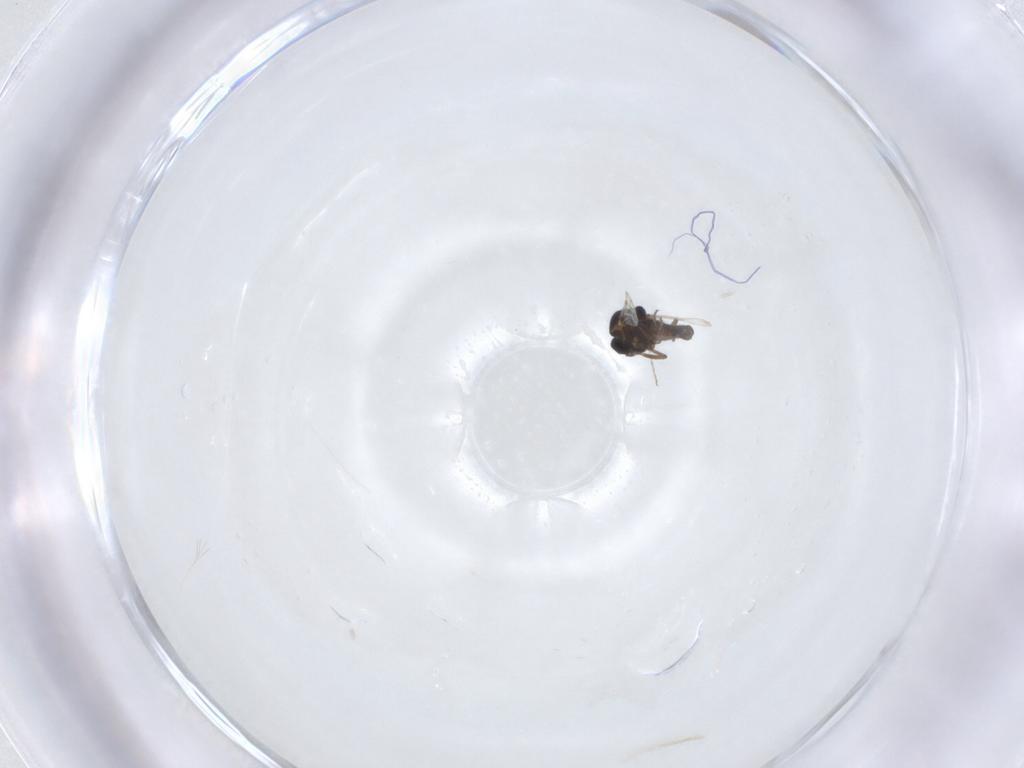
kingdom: Animalia
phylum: Arthropoda
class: Insecta
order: Diptera
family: Ceratopogonidae
